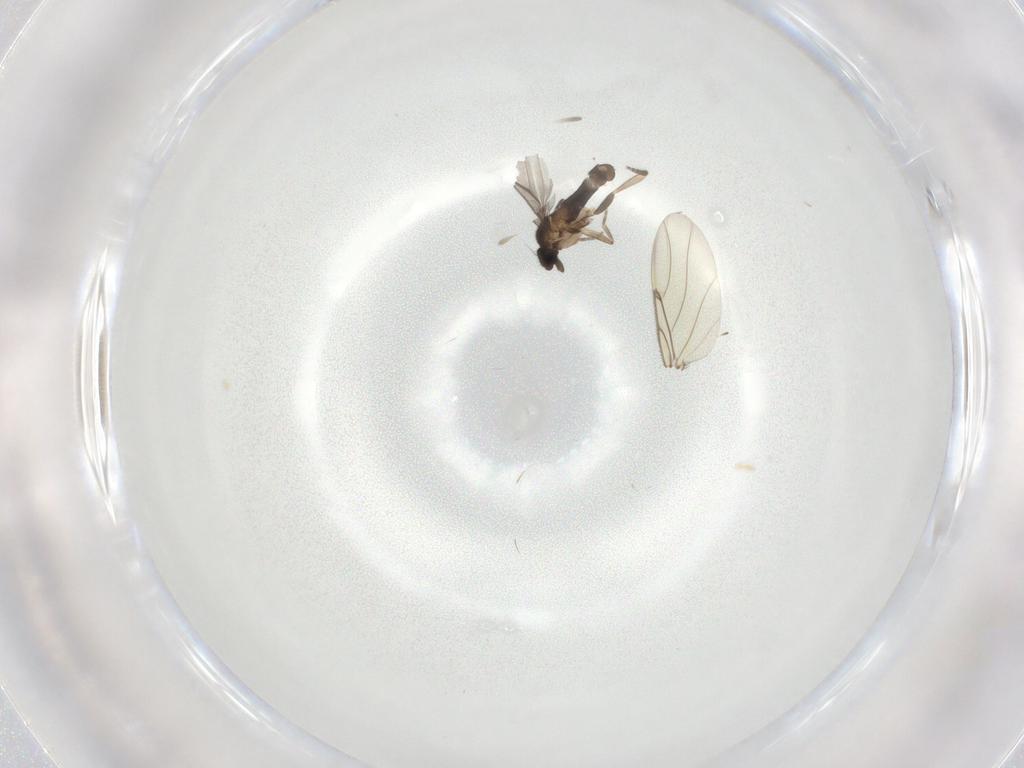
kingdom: Animalia
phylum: Arthropoda
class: Insecta
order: Diptera
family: Phoridae
